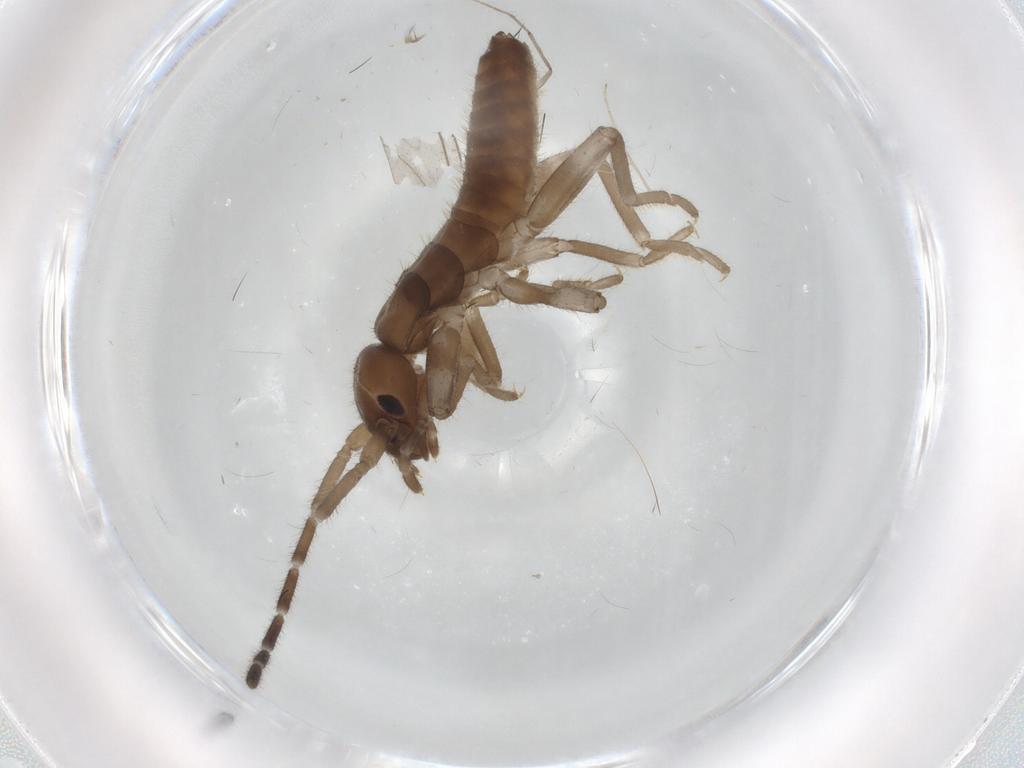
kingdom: Animalia
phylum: Arthropoda
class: Insecta
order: Dermaptera
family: Spongiphoridae
